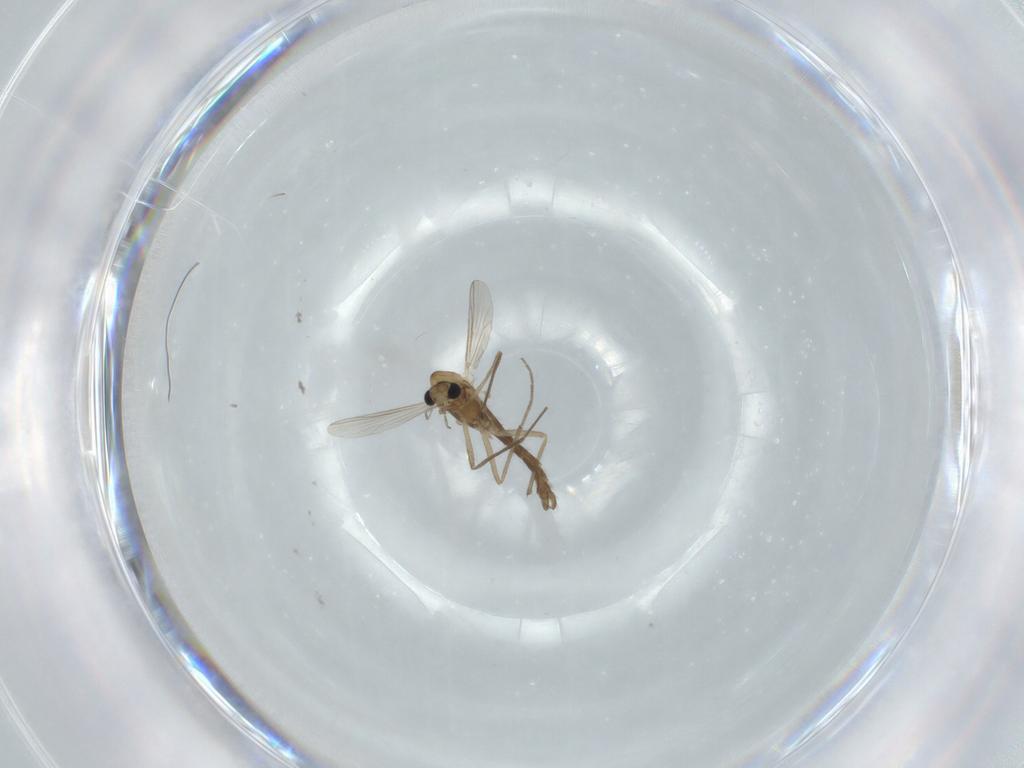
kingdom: Animalia
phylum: Arthropoda
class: Insecta
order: Diptera
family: Chironomidae
